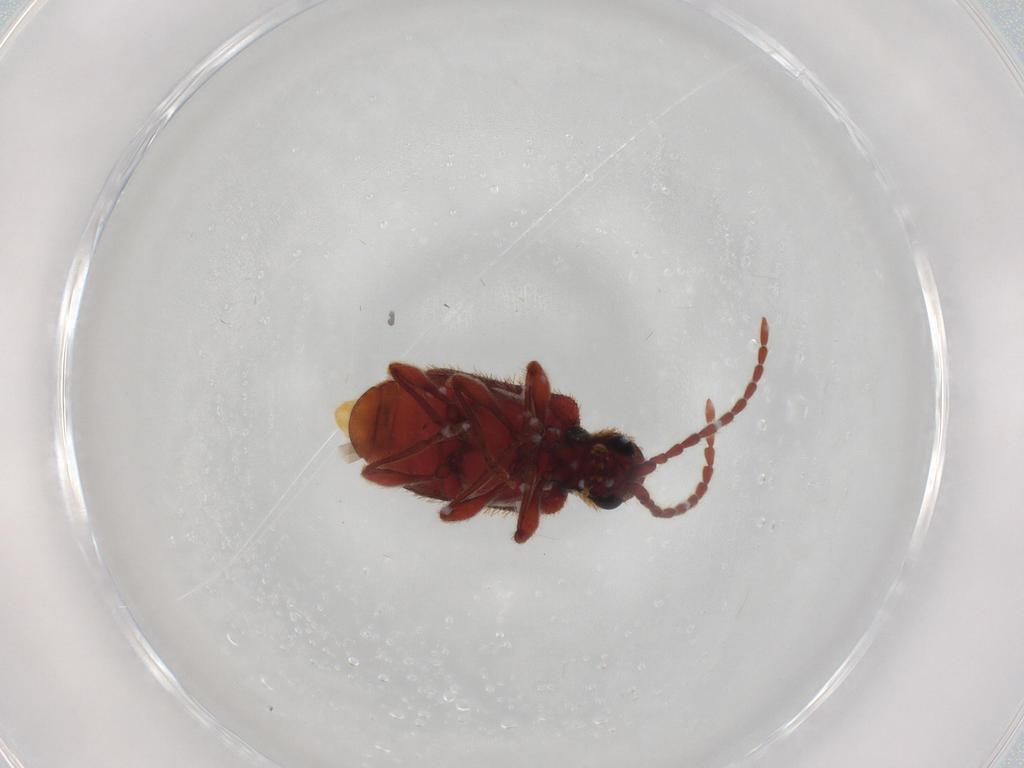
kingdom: Animalia
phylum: Arthropoda
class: Insecta
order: Coleoptera
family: Ptinidae
